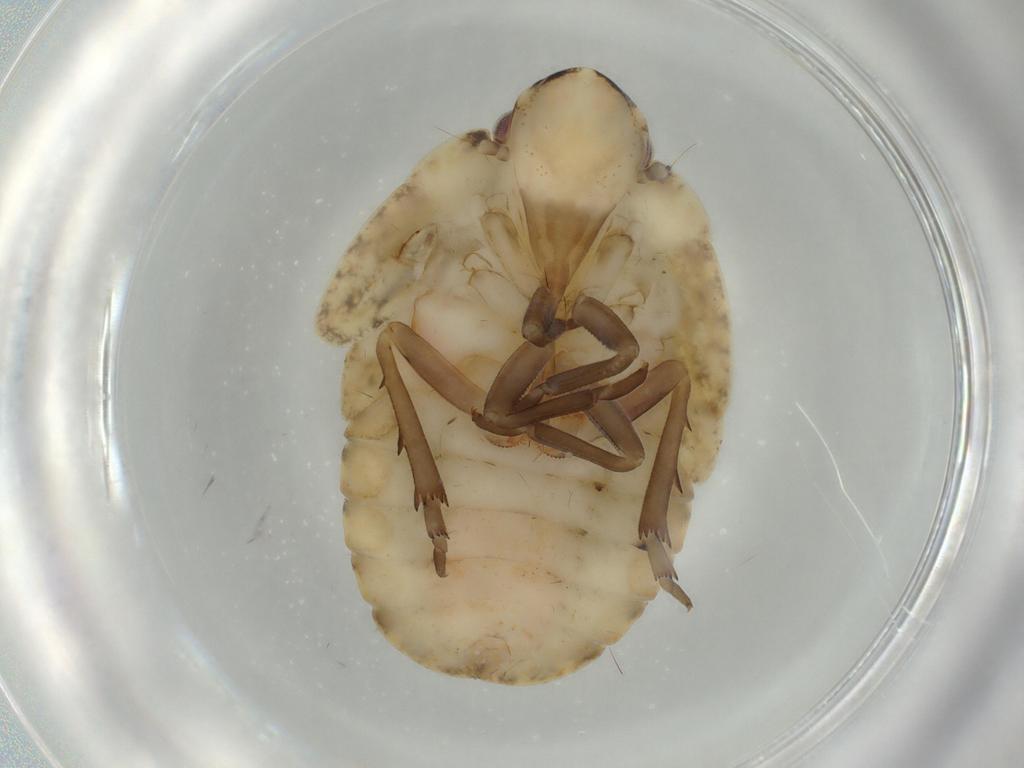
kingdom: Animalia
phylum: Arthropoda
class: Insecta
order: Hemiptera
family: Flatidae
